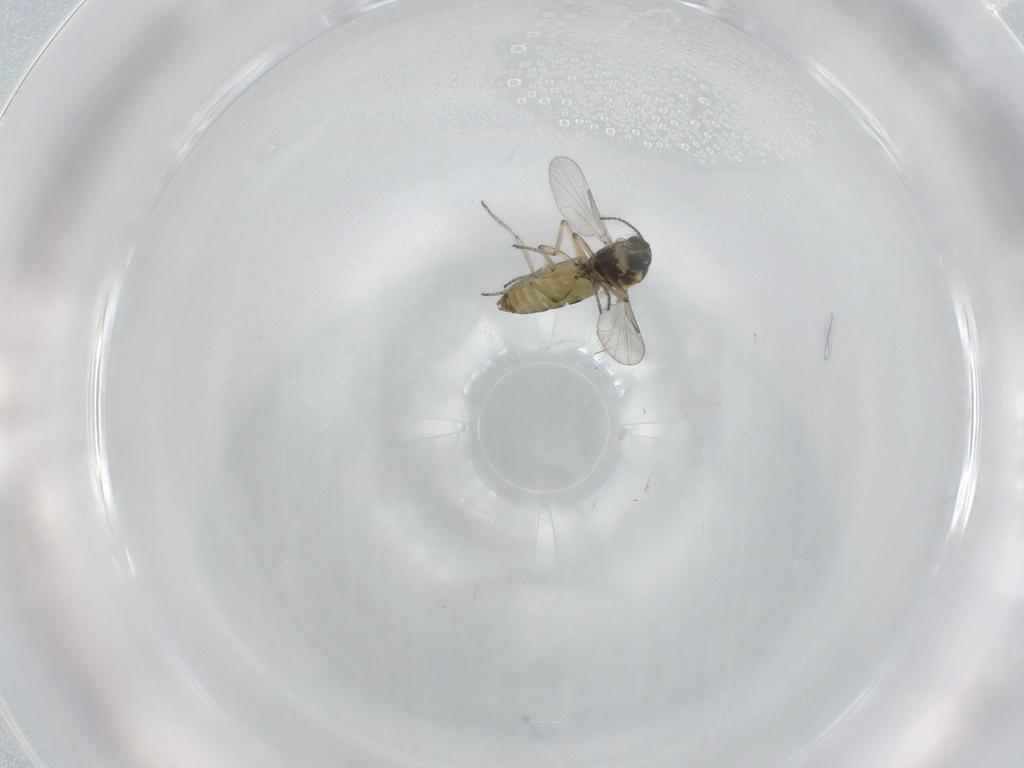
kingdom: Animalia
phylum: Arthropoda
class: Insecta
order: Diptera
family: Ceratopogonidae
